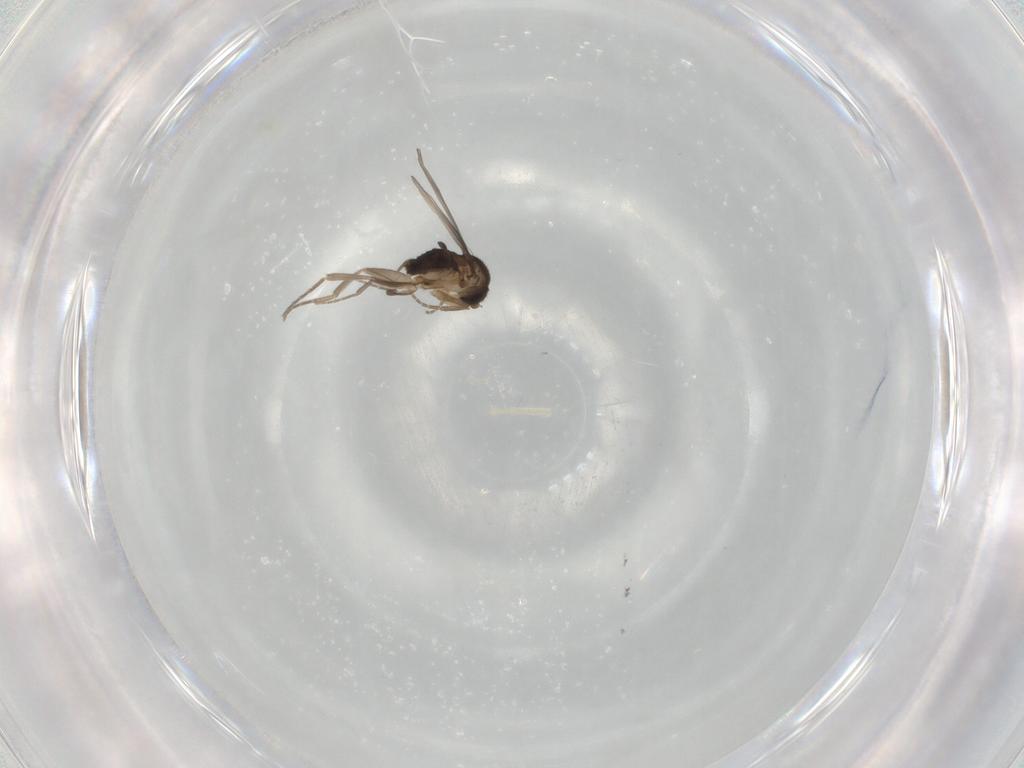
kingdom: Animalia
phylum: Arthropoda
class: Insecta
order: Diptera
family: Phoridae
